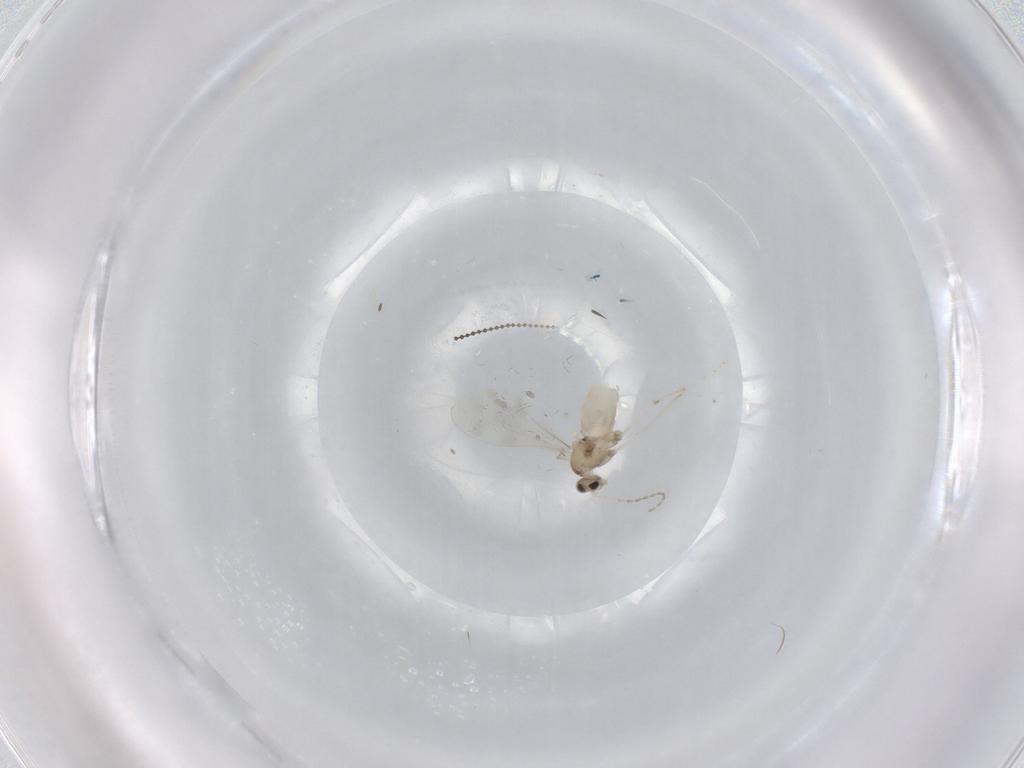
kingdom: Animalia
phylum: Arthropoda
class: Insecta
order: Diptera
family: Cecidomyiidae
